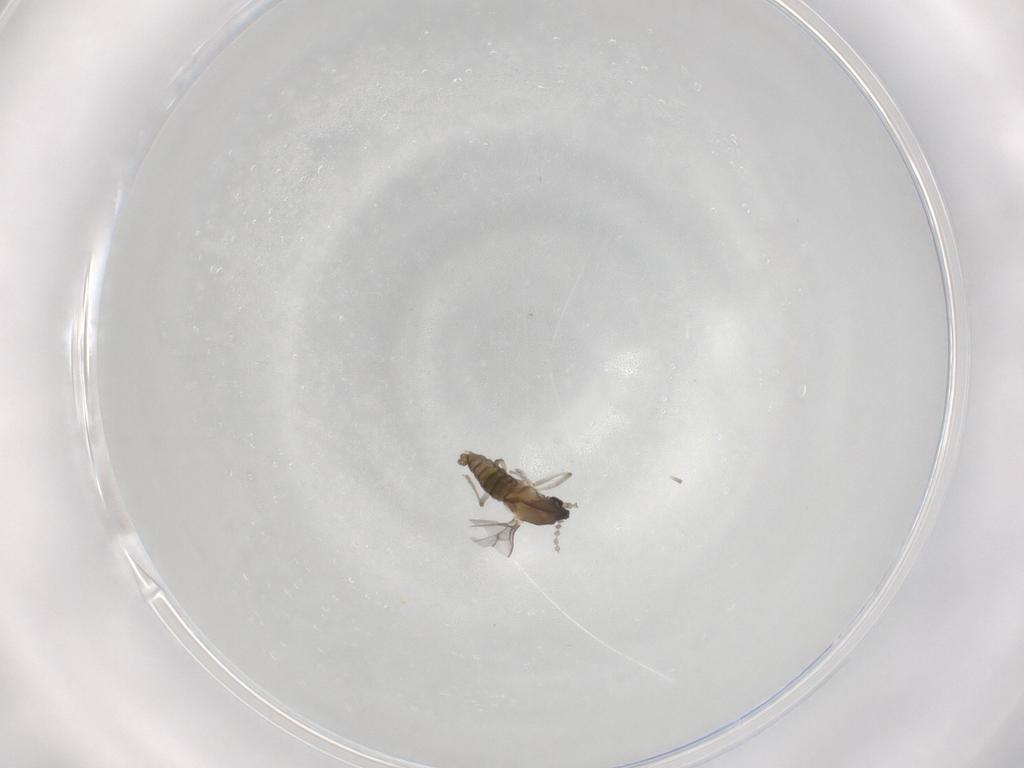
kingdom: Animalia
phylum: Arthropoda
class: Insecta
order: Diptera
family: Cecidomyiidae
